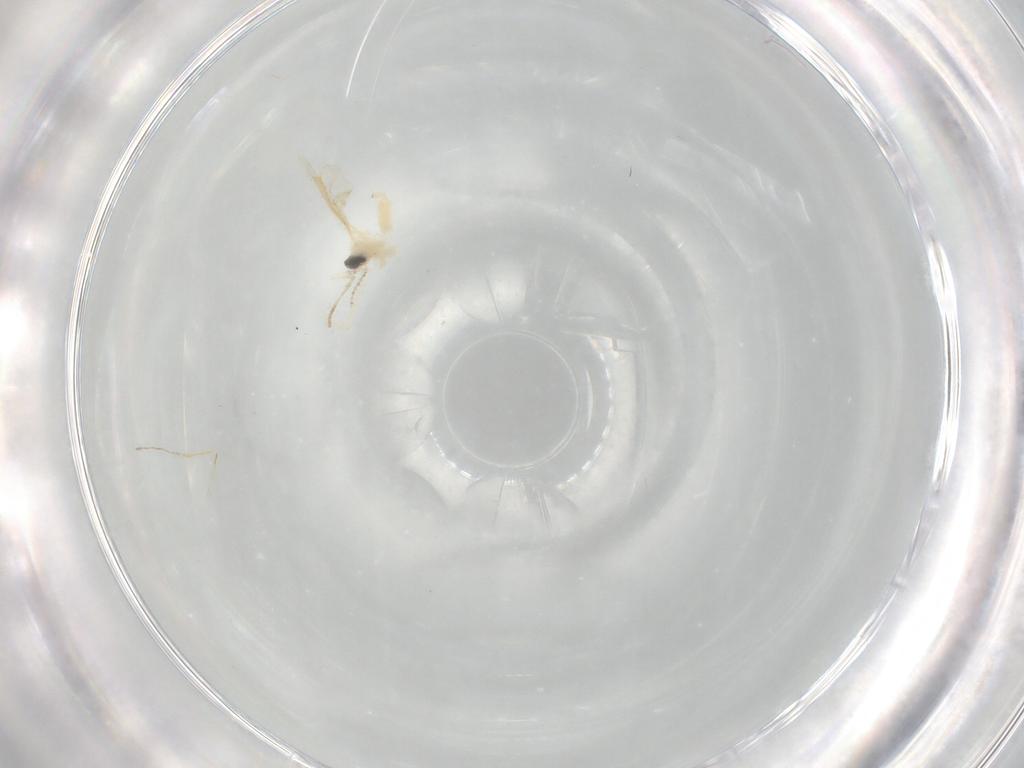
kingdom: Animalia
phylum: Arthropoda
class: Insecta
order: Diptera
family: Cecidomyiidae
